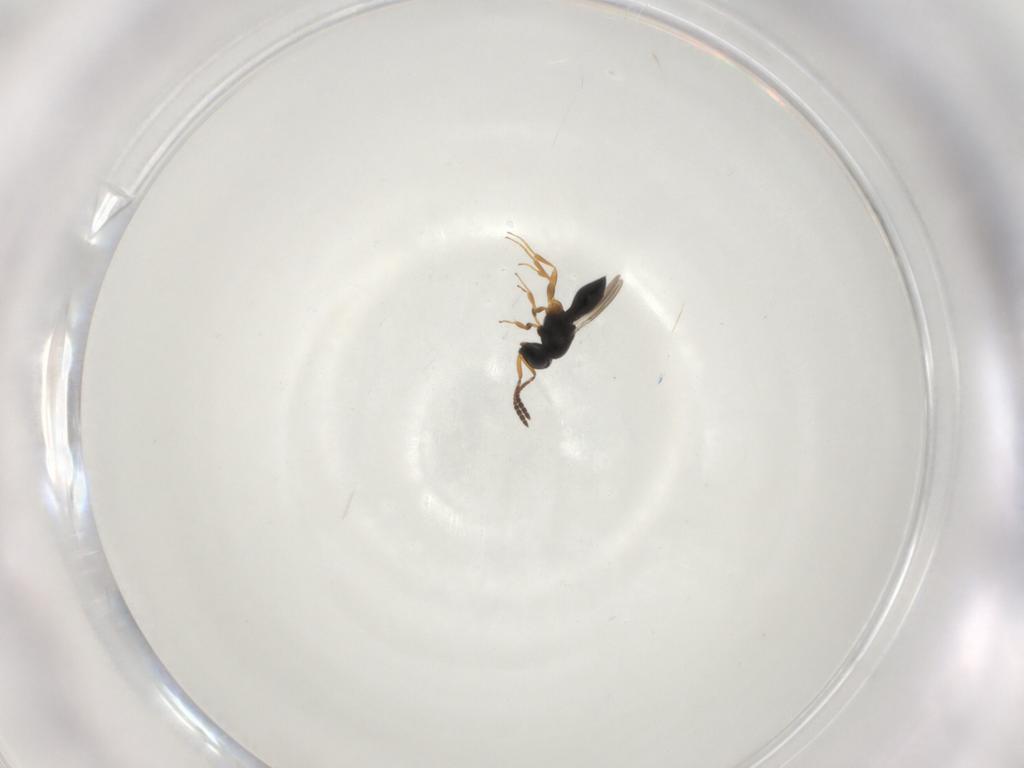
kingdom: Animalia
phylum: Arthropoda
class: Insecta
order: Hymenoptera
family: Scelionidae
